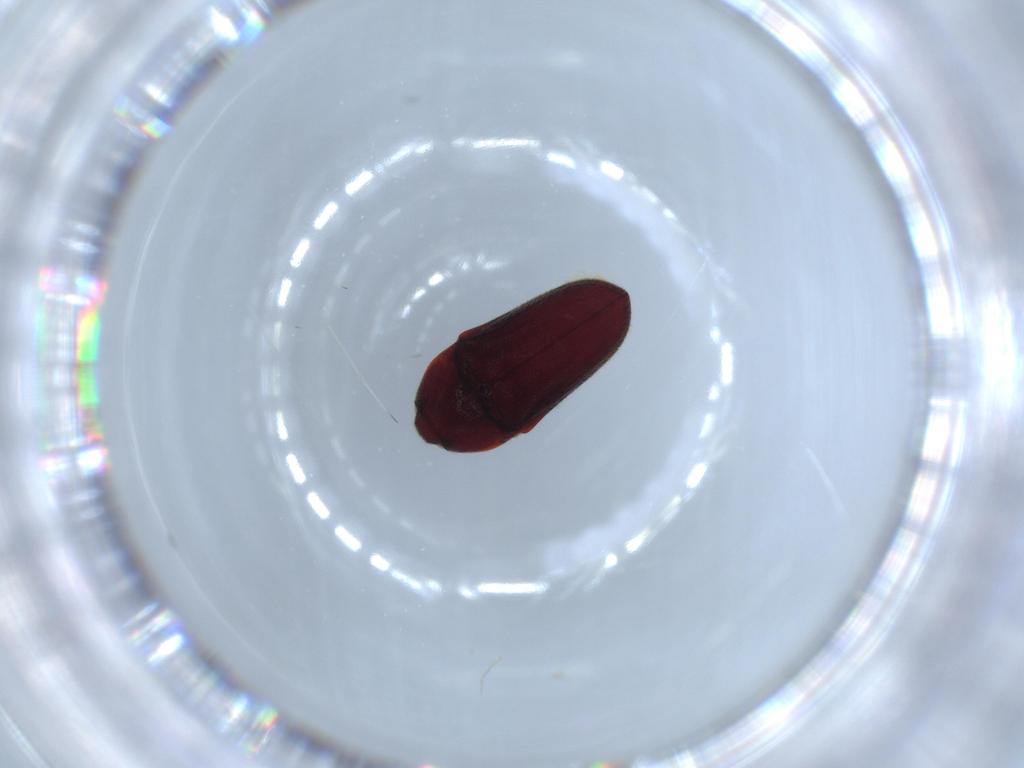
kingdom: Animalia
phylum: Arthropoda
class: Insecta
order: Coleoptera
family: Throscidae
